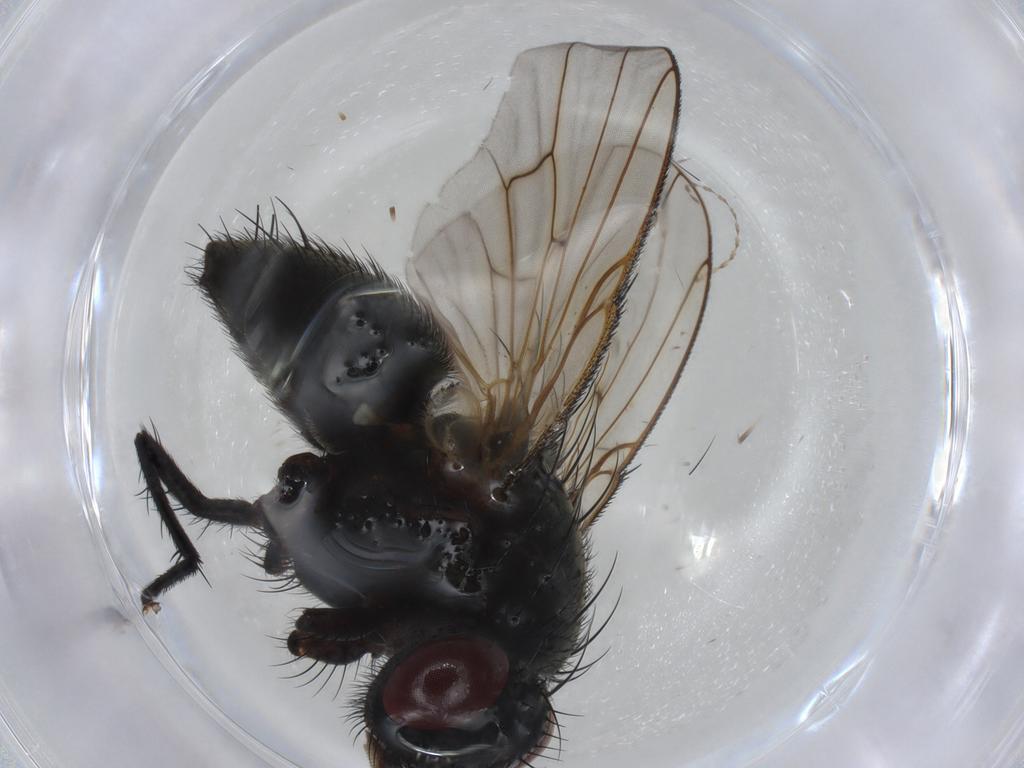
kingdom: Animalia
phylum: Arthropoda
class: Insecta
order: Diptera
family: Muscidae
